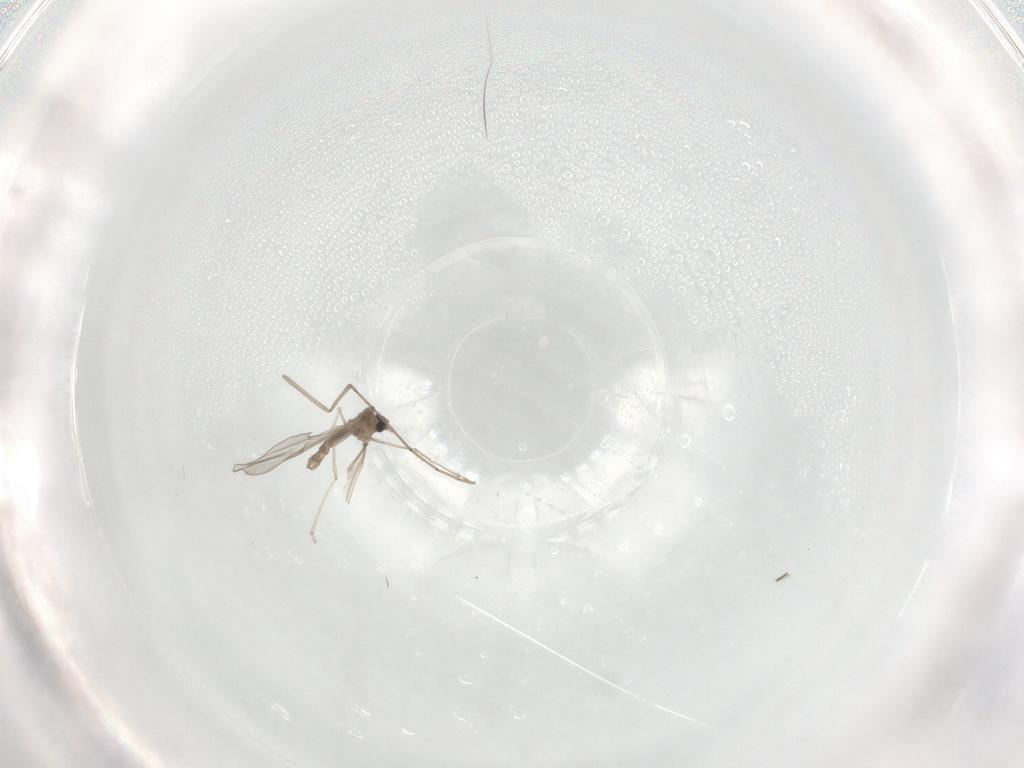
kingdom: Animalia
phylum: Arthropoda
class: Insecta
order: Diptera
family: Cecidomyiidae
